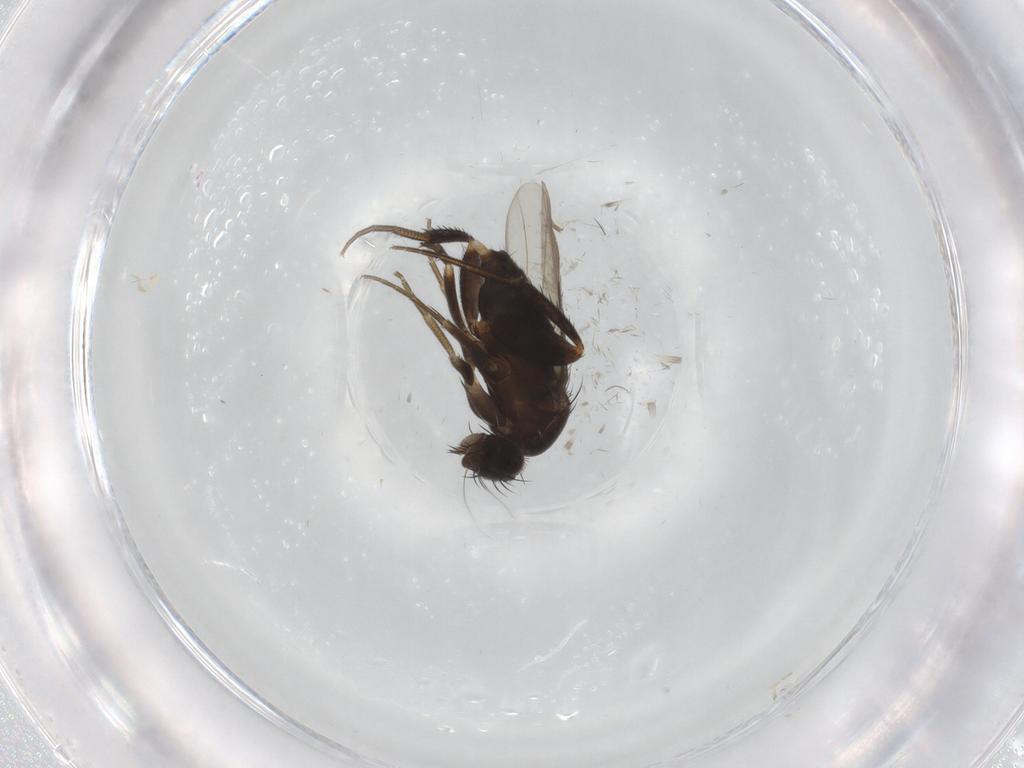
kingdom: Animalia
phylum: Arthropoda
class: Insecta
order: Diptera
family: Phoridae
